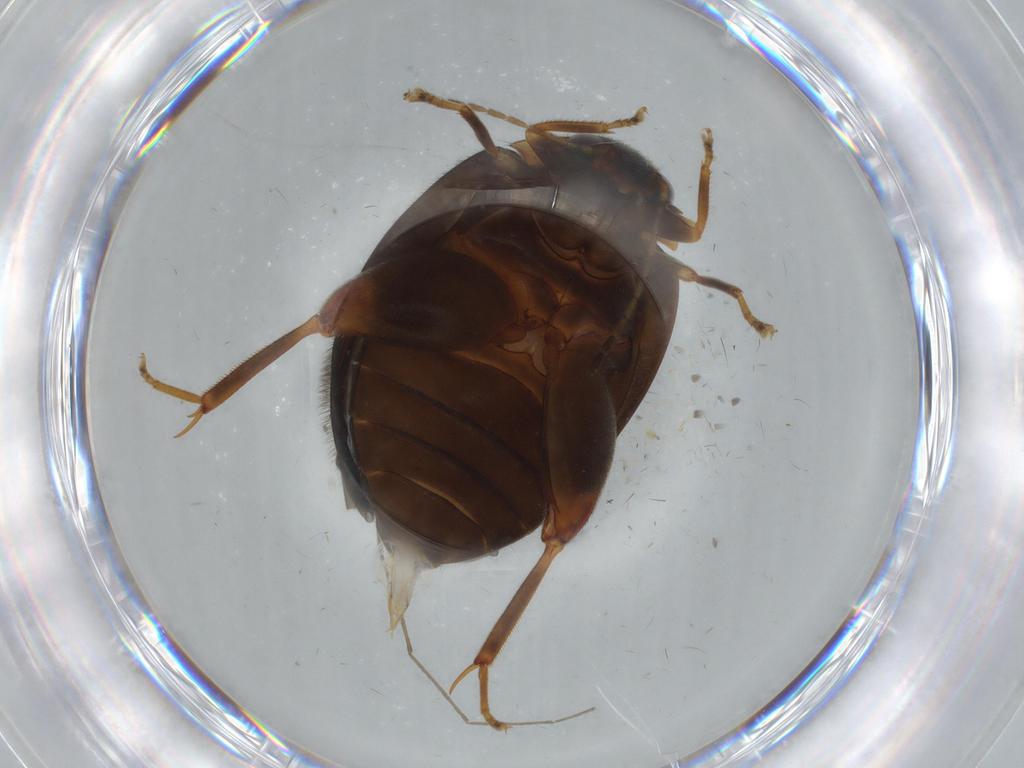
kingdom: Animalia
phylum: Arthropoda
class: Insecta
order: Coleoptera
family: Scirtidae
